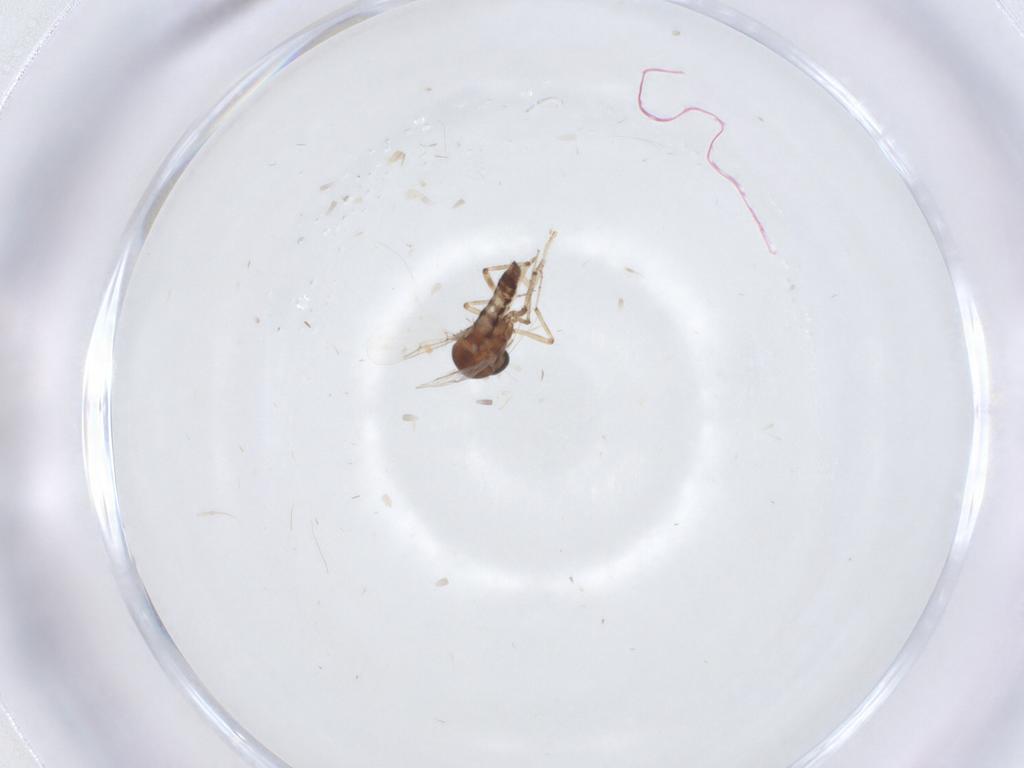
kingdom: Animalia
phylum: Arthropoda
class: Insecta
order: Diptera
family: Ceratopogonidae
